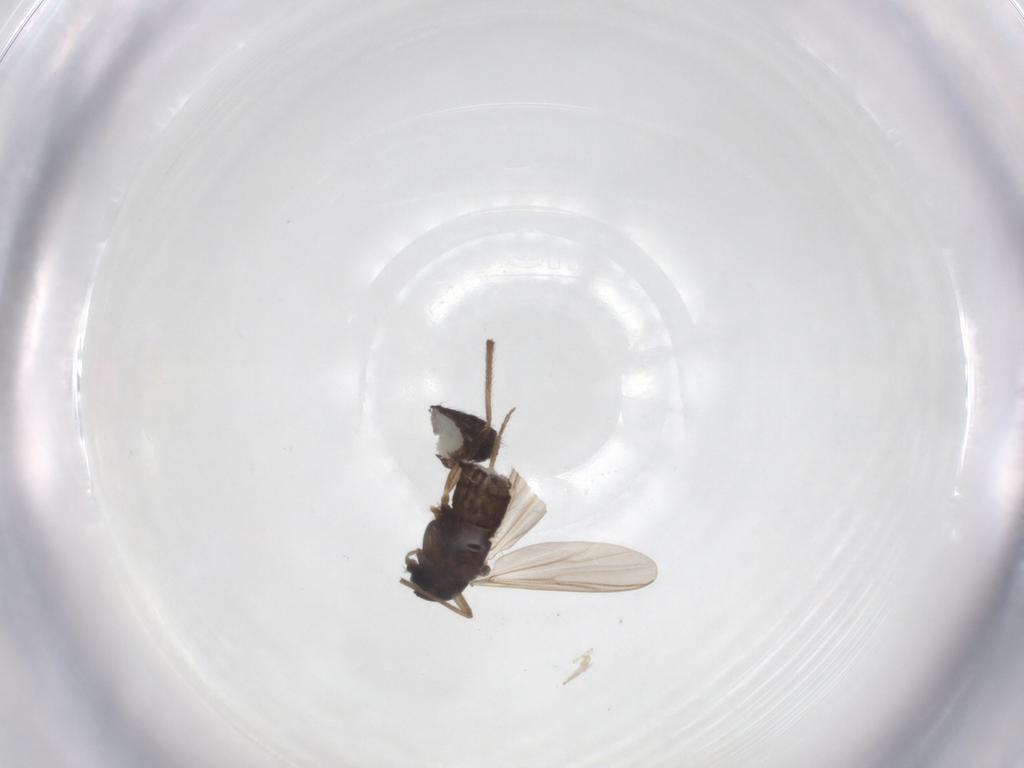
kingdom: Animalia
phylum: Arthropoda
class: Insecta
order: Diptera
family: Chironomidae
